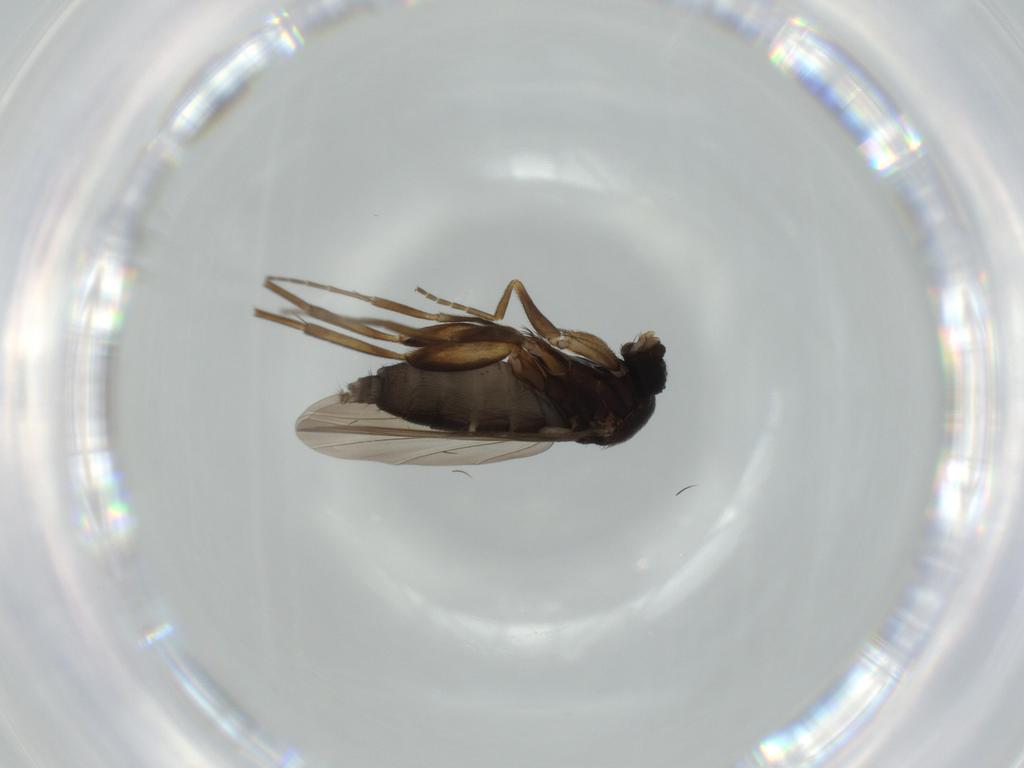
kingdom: Animalia
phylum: Arthropoda
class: Insecta
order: Diptera
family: Phoridae
